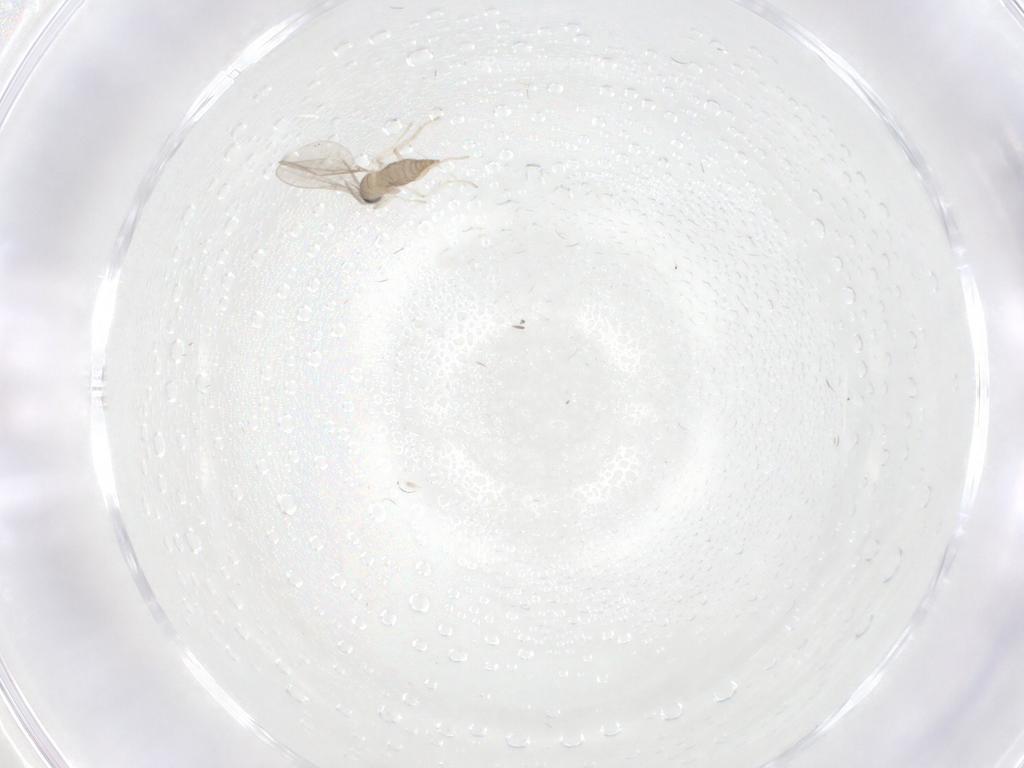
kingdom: Animalia
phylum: Arthropoda
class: Insecta
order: Diptera
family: Cecidomyiidae
